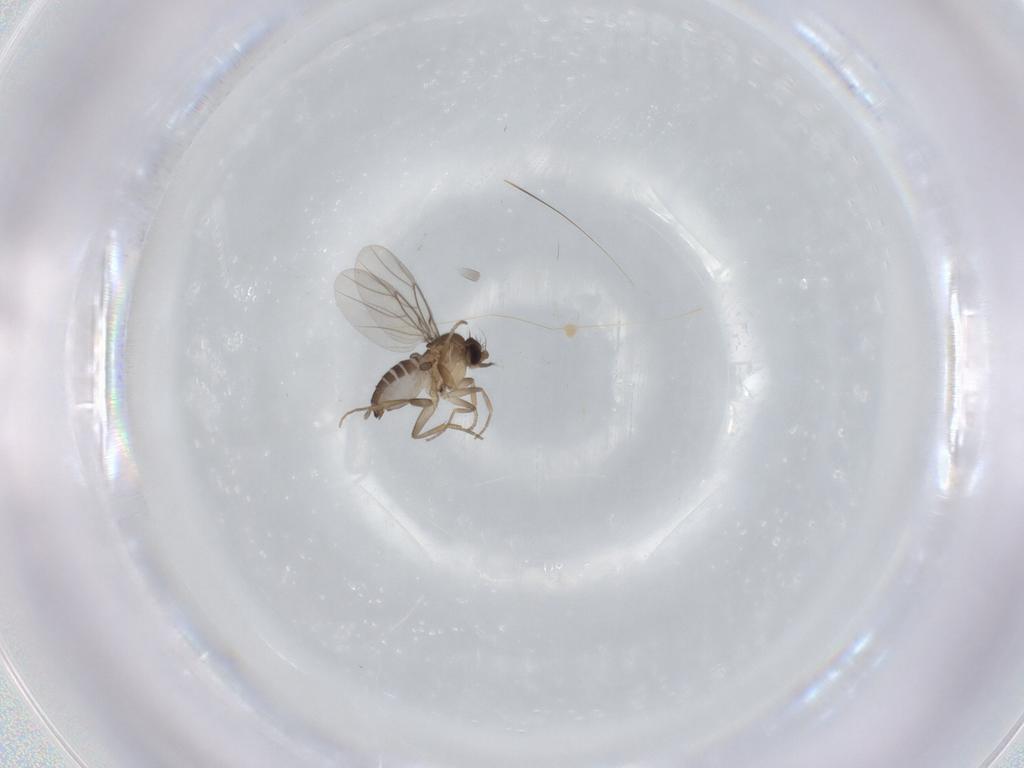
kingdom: Animalia
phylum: Arthropoda
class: Insecta
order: Diptera
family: Phoridae
